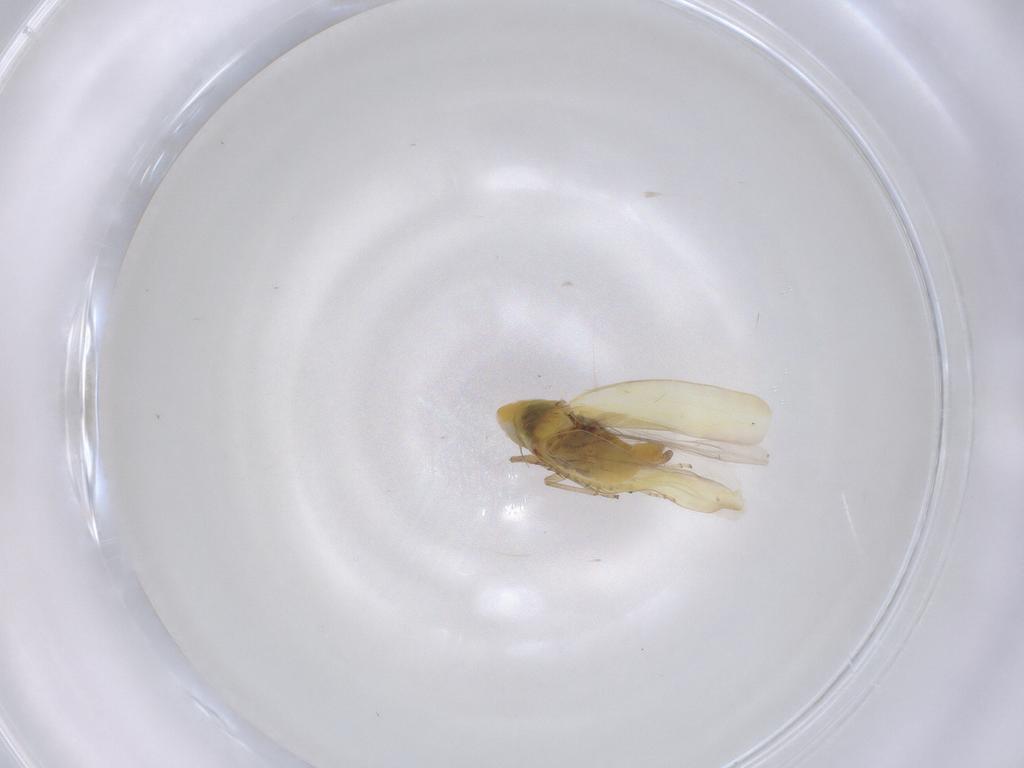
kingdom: Animalia
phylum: Arthropoda
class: Insecta
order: Hemiptera
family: Cicadellidae
